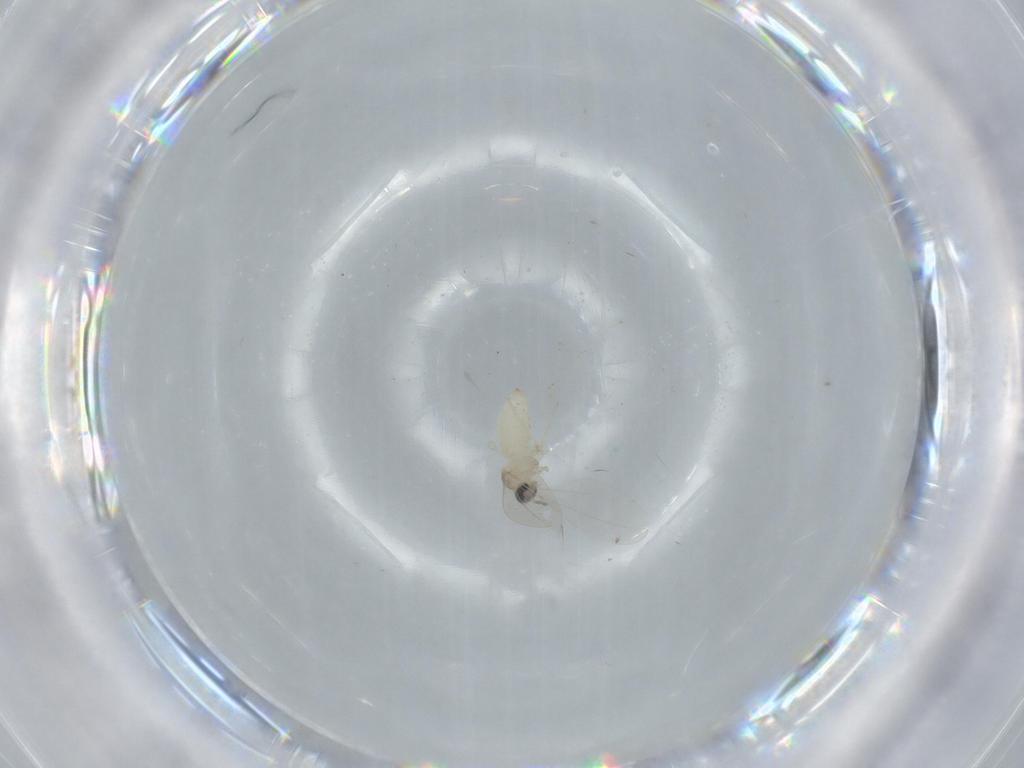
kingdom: Animalia
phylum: Arthropoda
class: Insecta
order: Diptera
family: Cecidomyiidae
